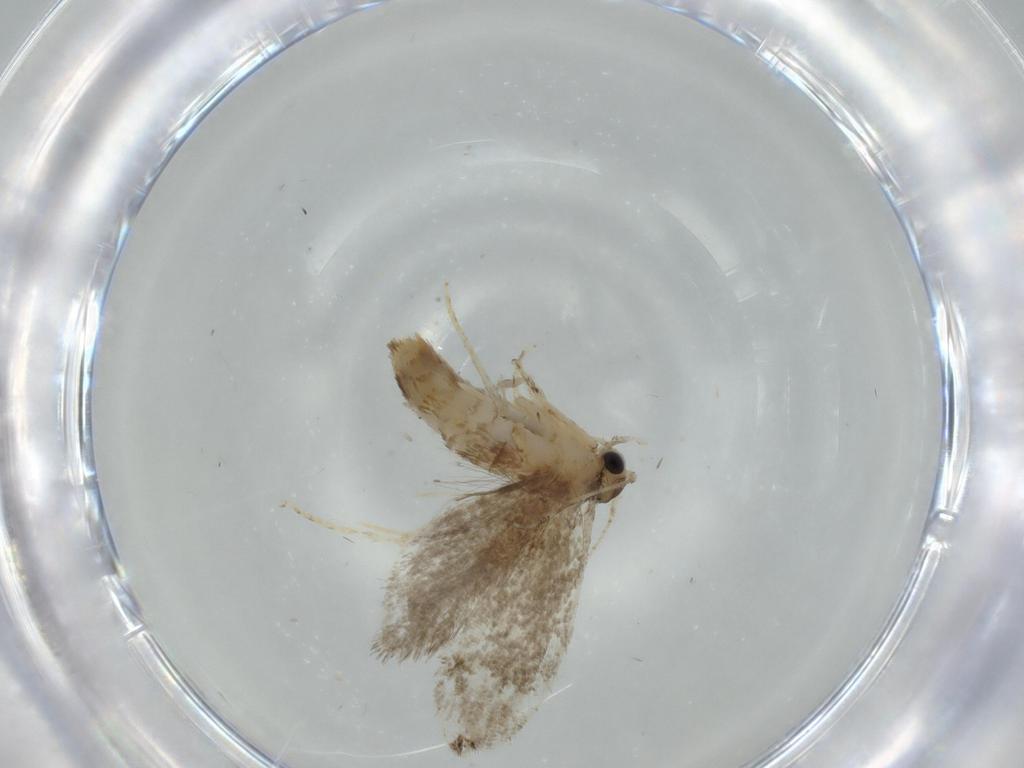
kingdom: Animalia
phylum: Arthropoda
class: Insecta
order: Lepidoptera
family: Tineidae
